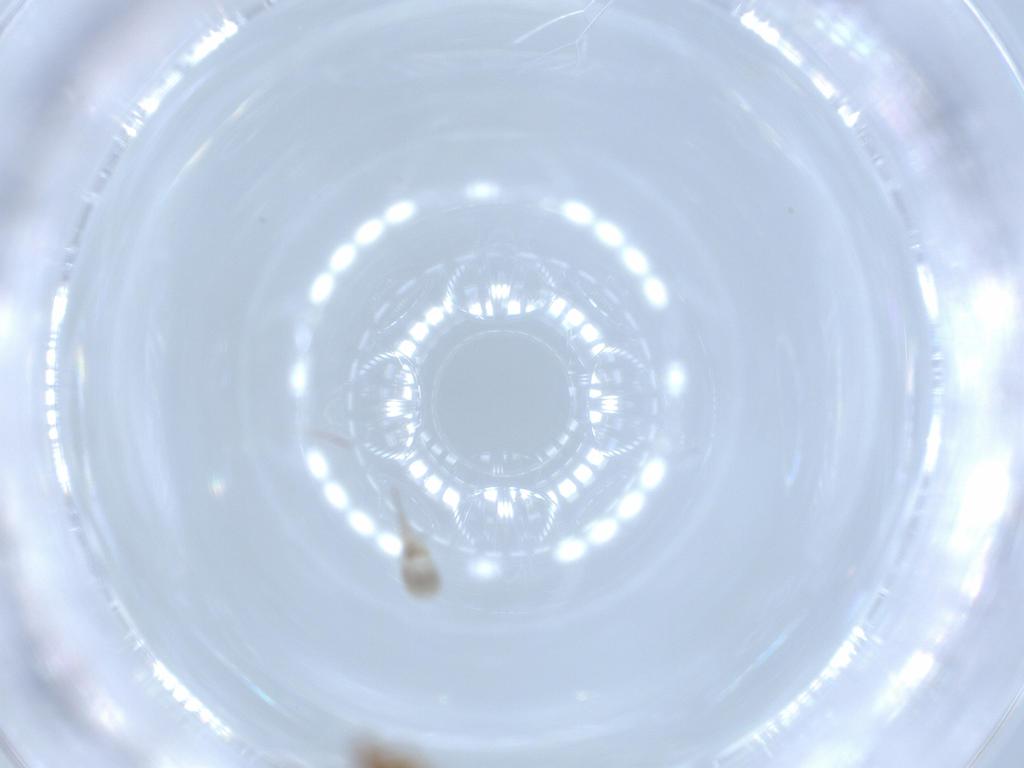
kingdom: Animalia
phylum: Arthropoda
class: Insecta
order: Hymenoptera
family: Scelionidae
